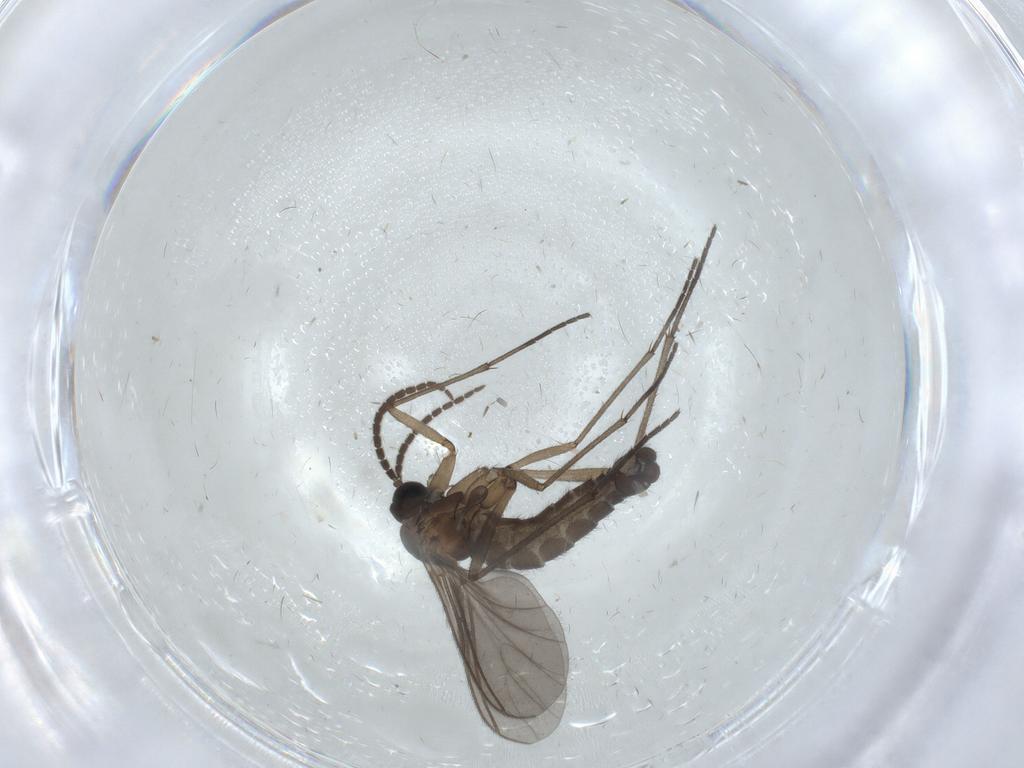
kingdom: Animalia
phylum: Arthropoda
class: Insecta
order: Diptera
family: Sciaridae
